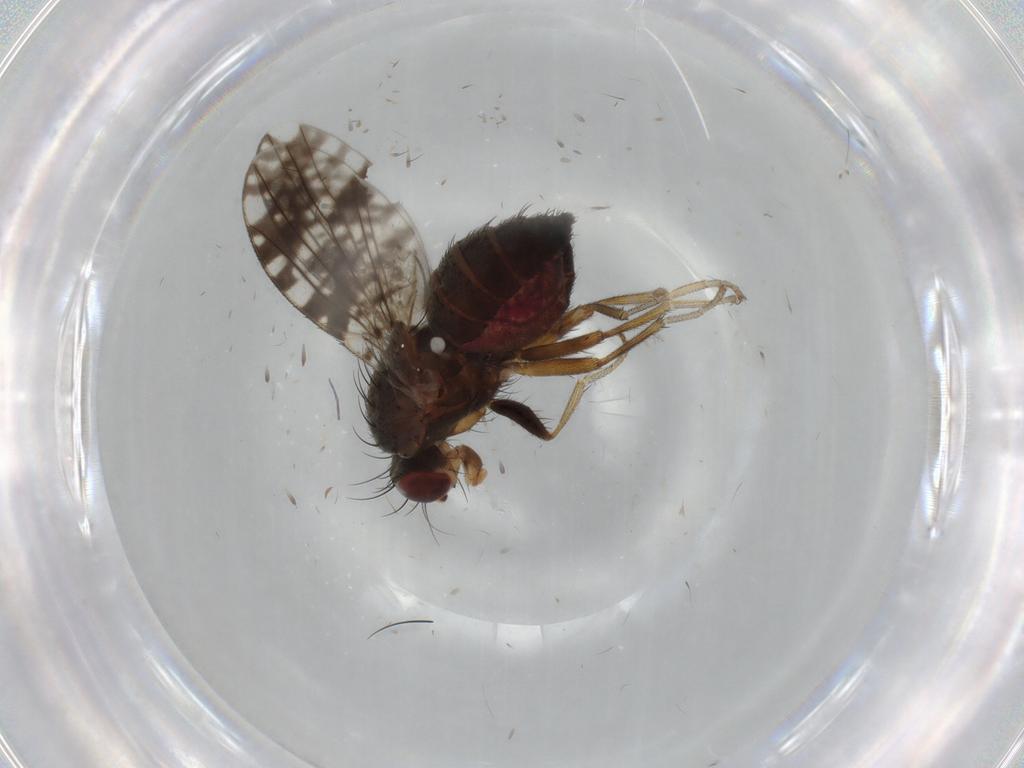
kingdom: Animalia
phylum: Arthropoda
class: Insecta
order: Diptera
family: Tephritidae
